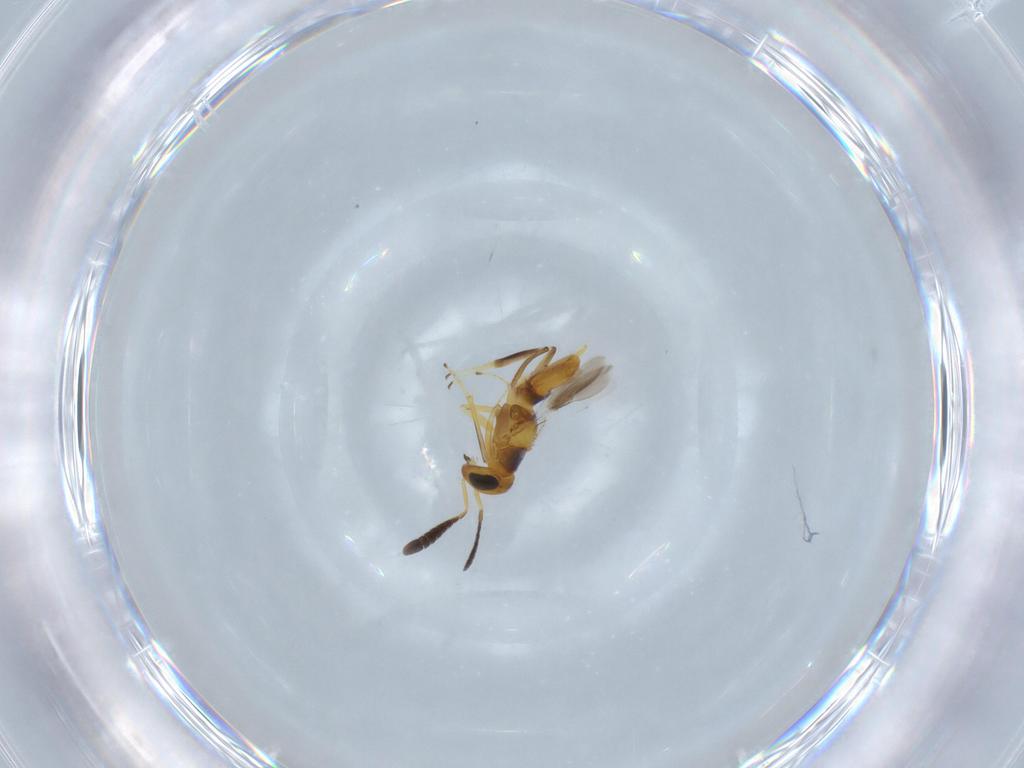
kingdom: Animalia
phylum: Arthropoda
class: Insecta
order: Hymenoptera
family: Encyrtidae
